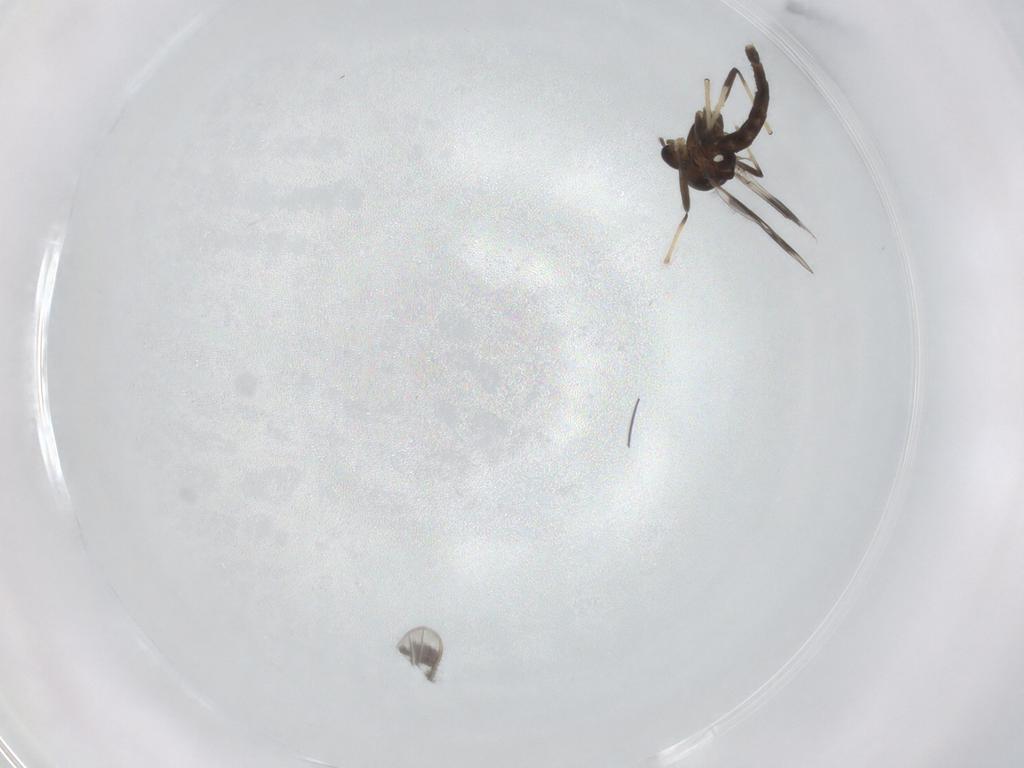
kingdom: Animalia
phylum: Arthropoda
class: Insecta
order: Diptera
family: Chironomidae
